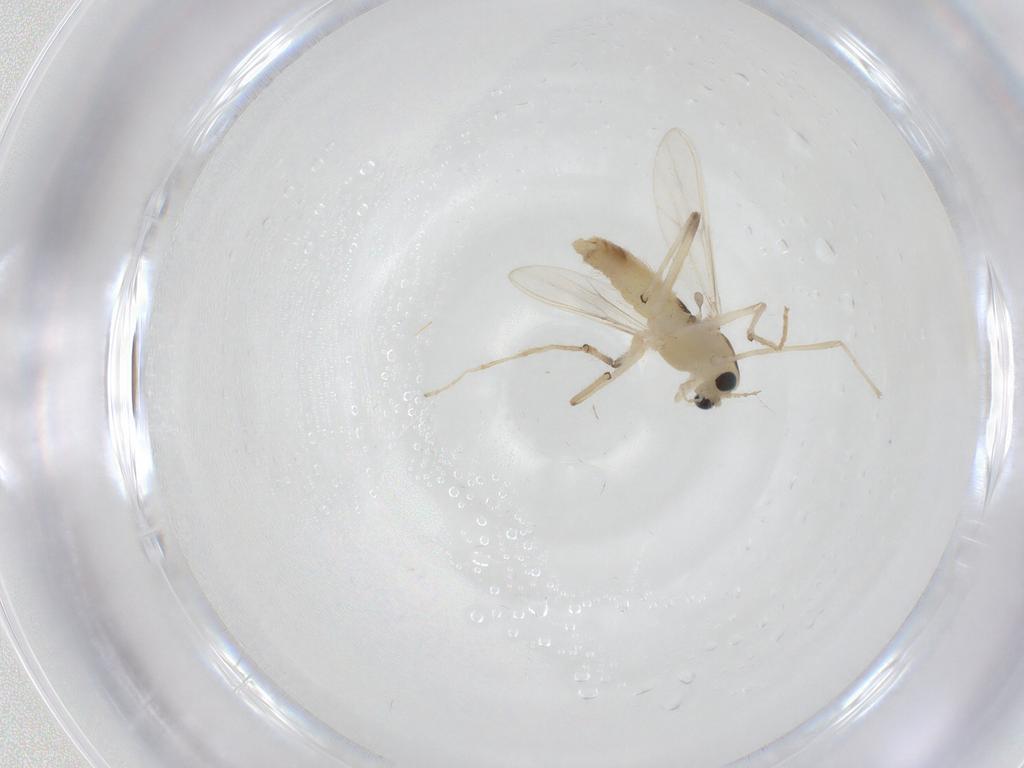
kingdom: Animalia
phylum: Arthropoda
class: Insecta
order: Diptera
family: Chironomidae
